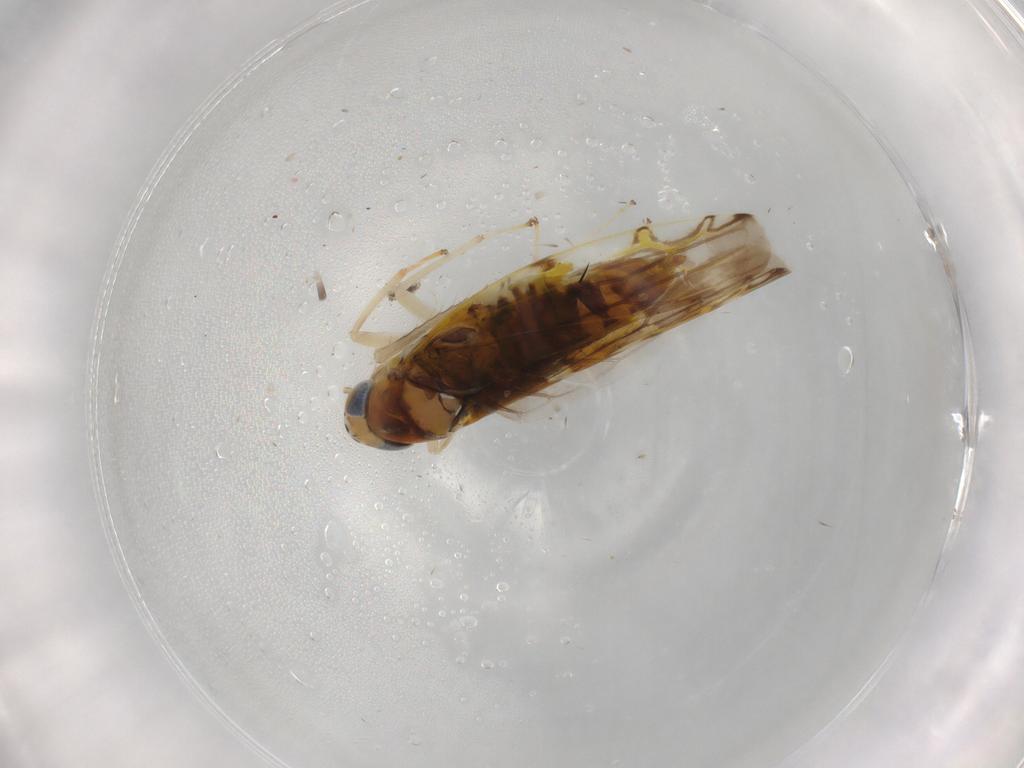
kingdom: Animalia
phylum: Arthropoda
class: Insecta
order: Hemiptera
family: Cicadellidae
